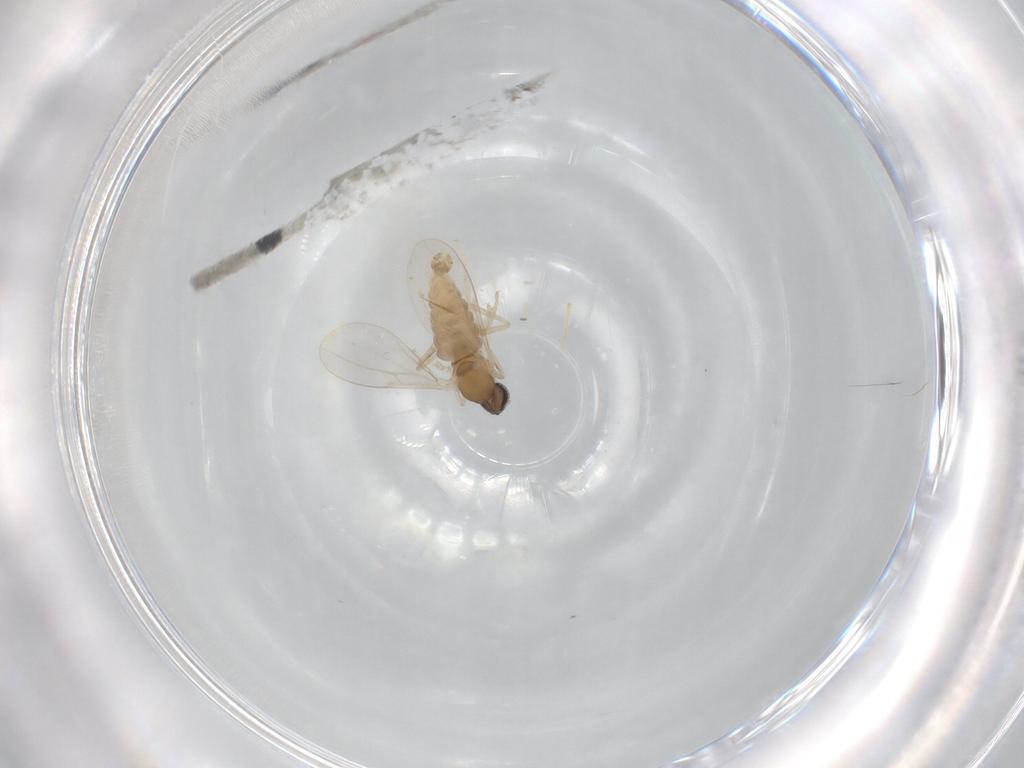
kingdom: Animalia
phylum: Arthropoda
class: Insecta
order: Diptera
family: Cecidomyiidae
